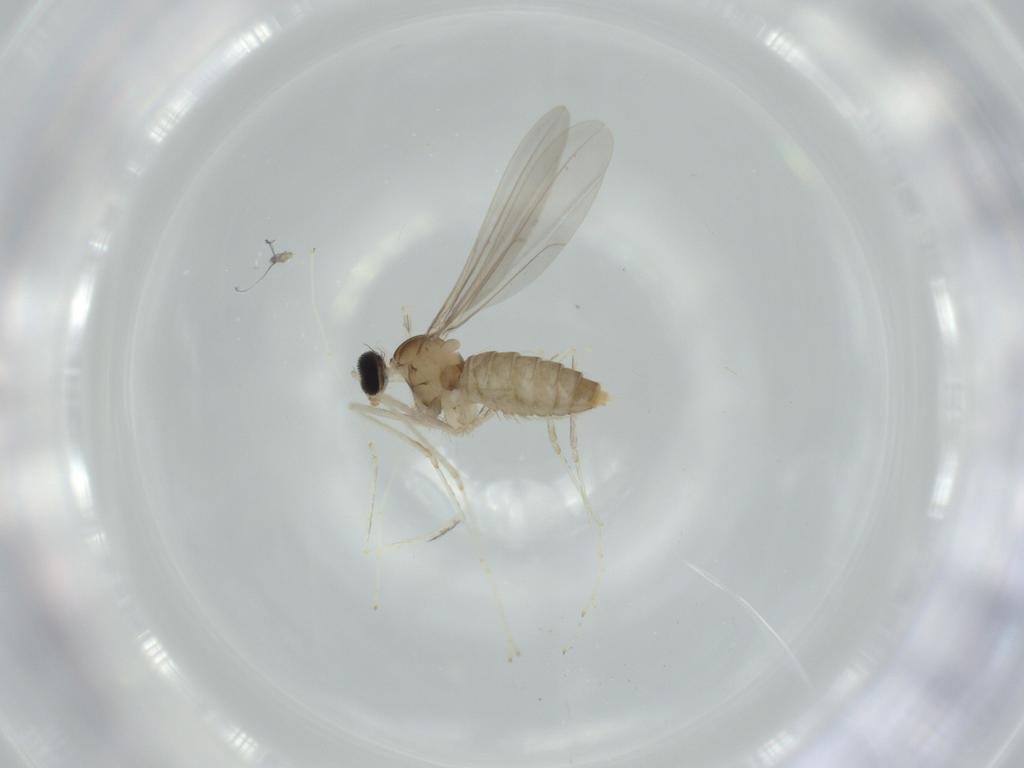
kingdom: Animalia
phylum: Arthropoda
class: Insecta
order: Diptera
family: Cecidomyiidae
